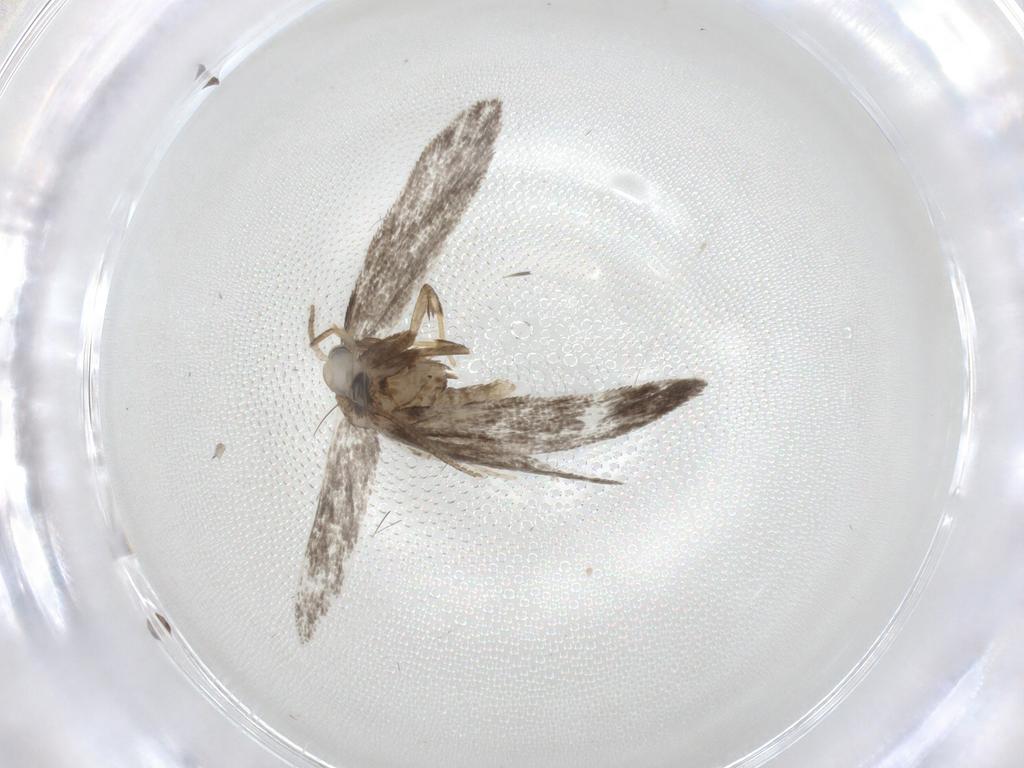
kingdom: Animalia
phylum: Arthropoda
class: Insecta
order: Lepidoptera
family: Psychidae
